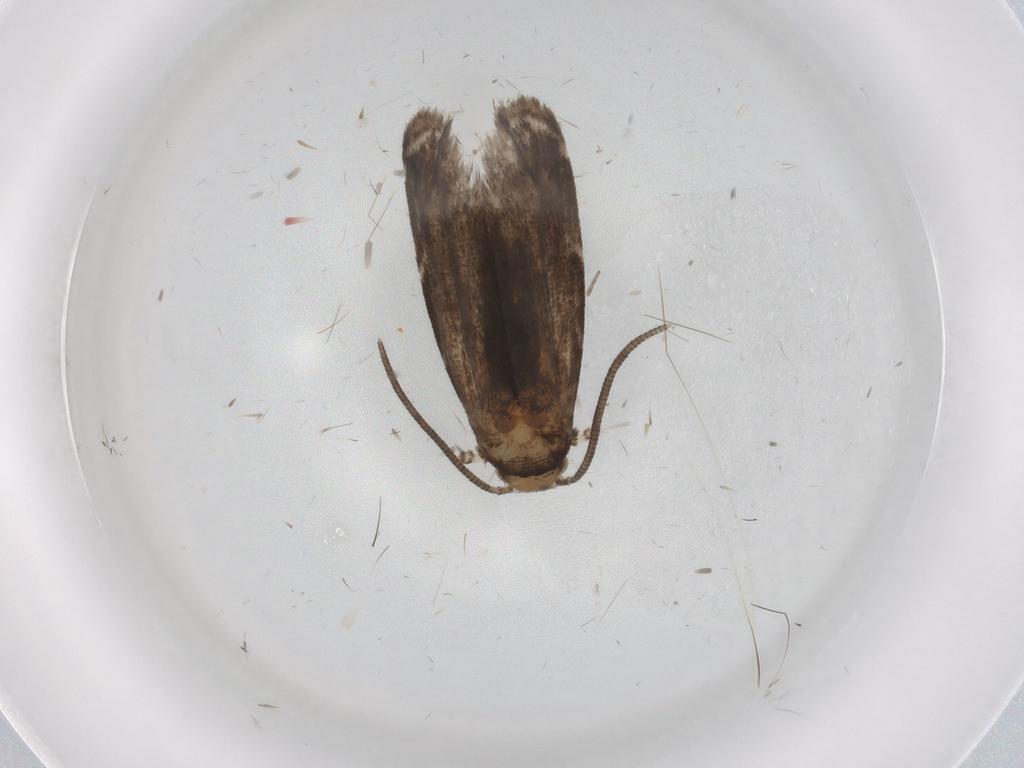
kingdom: Animalia
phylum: Arthropoda
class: Insecta
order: Lepidoptera
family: Dryadaulidae
